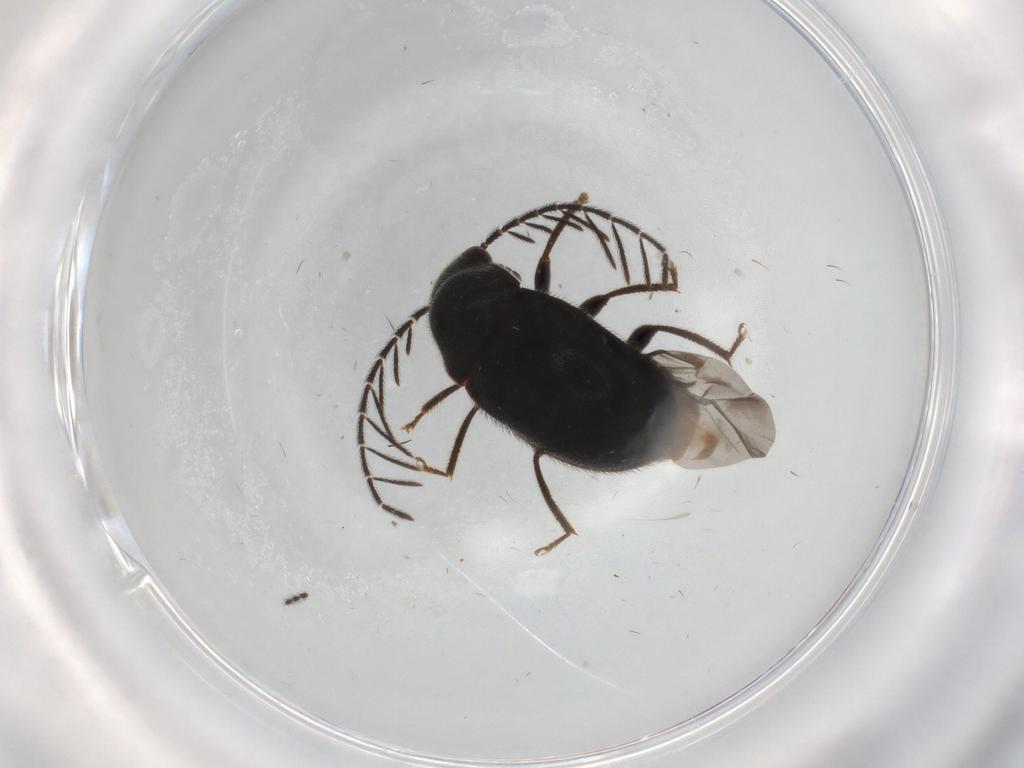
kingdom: Animalia
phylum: Arthropoda
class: Insecta
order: Coleoptera
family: Ptilodactylidae
